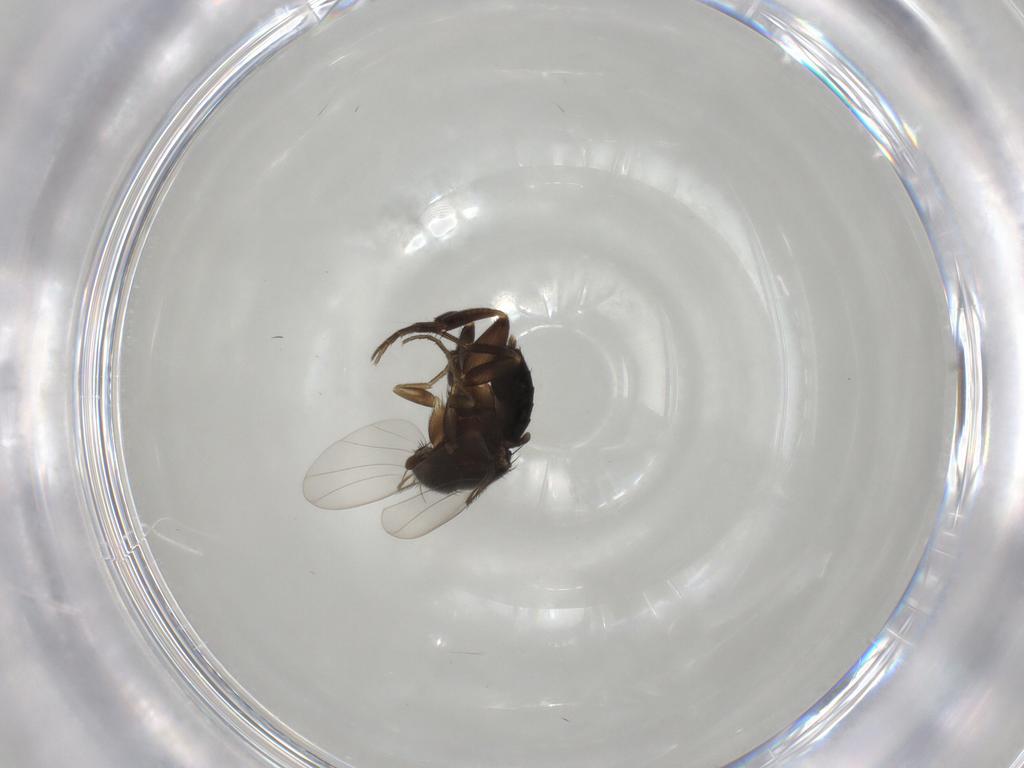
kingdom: Animalia
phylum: Arthropoda
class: Insecta
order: Diptera
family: Phoridae
